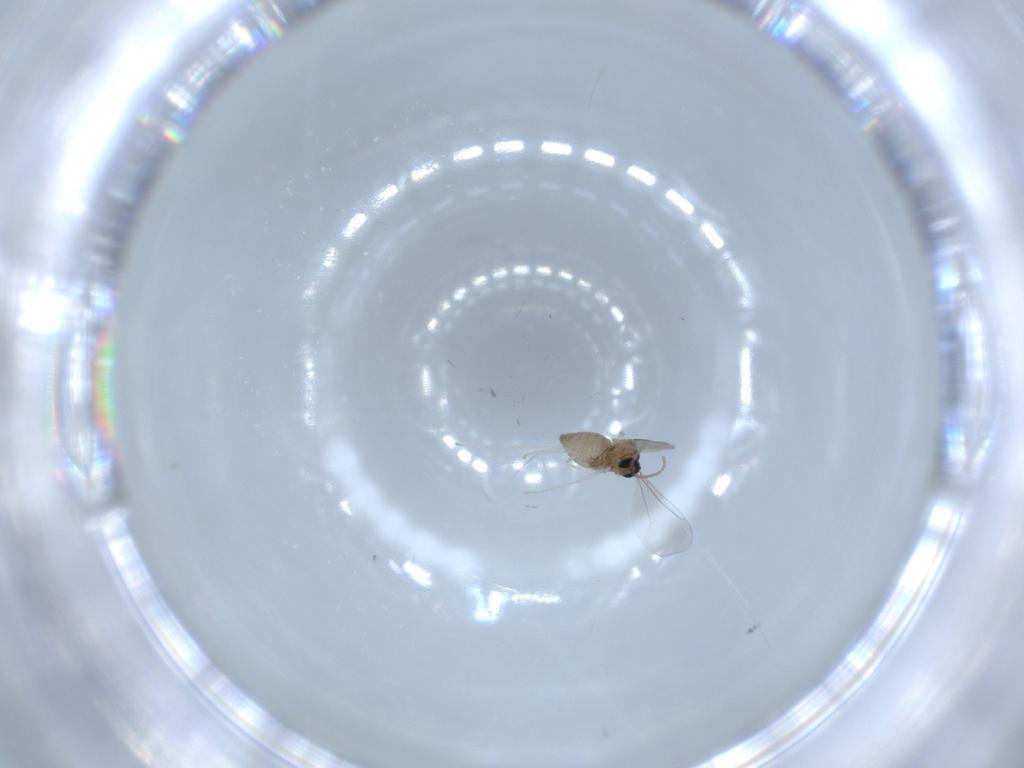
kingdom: Animalia
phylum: Arthropoda
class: Insecta
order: Diptera
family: Cecidomyiidae
